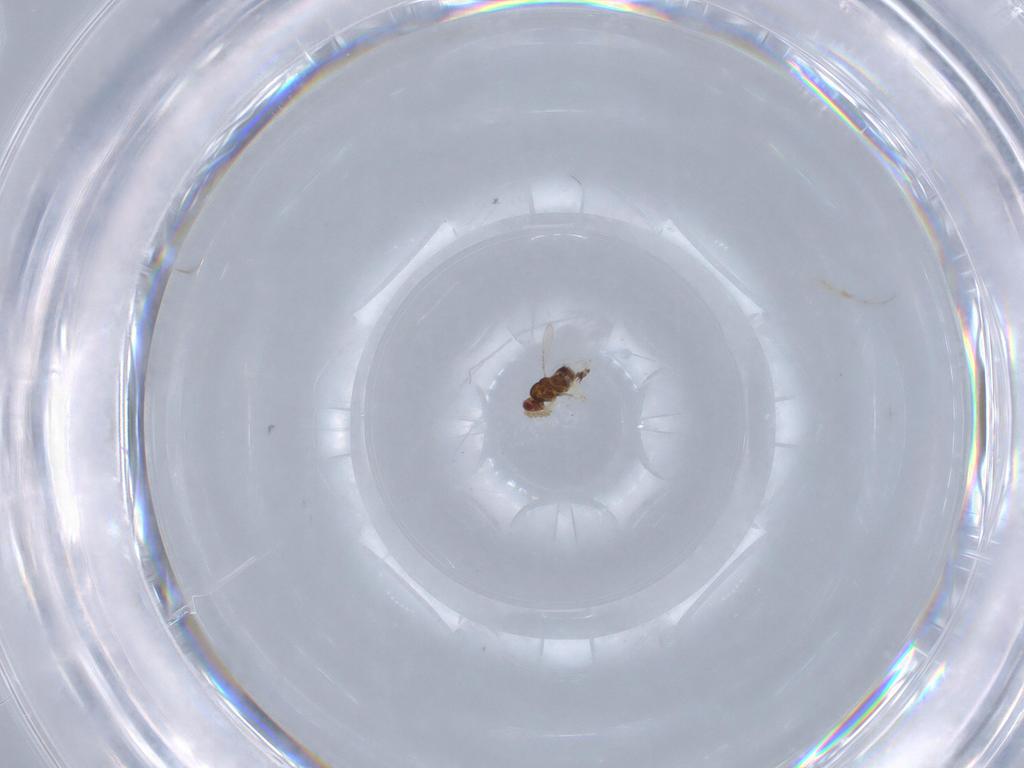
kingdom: Animalia
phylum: Arthropoda
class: Insecta
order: Hymenoptera
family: Trichogrammatidae
